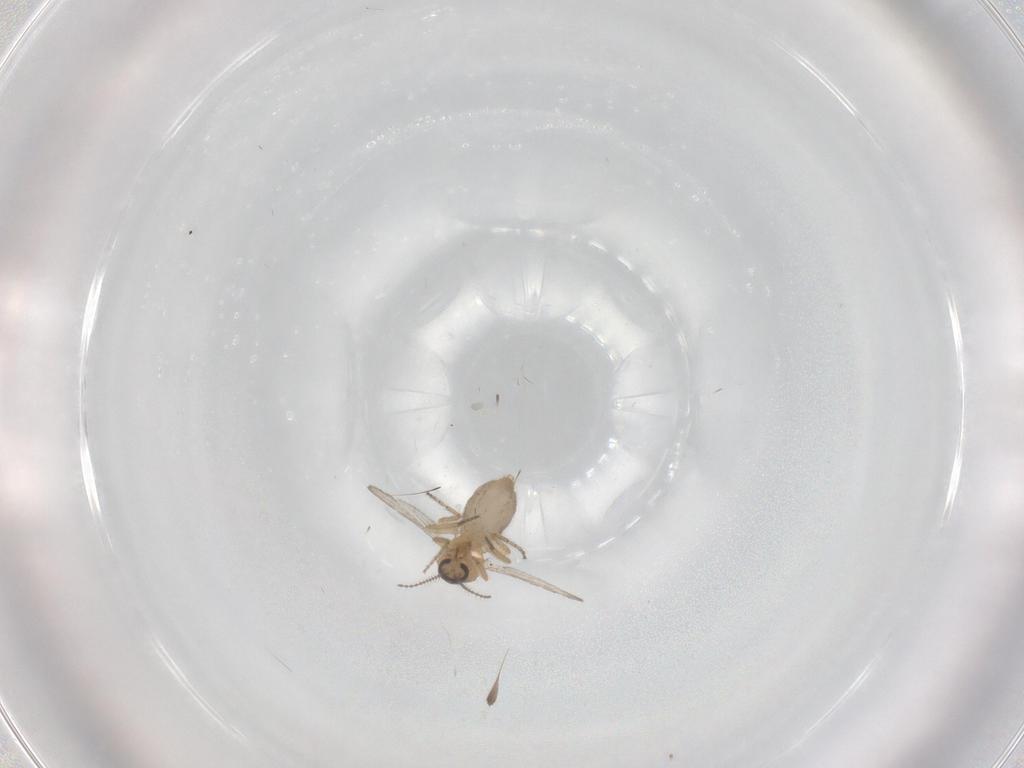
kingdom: Animalia
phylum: Arthropoda
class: Insecta
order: Diptera
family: Ceratopogonidae
